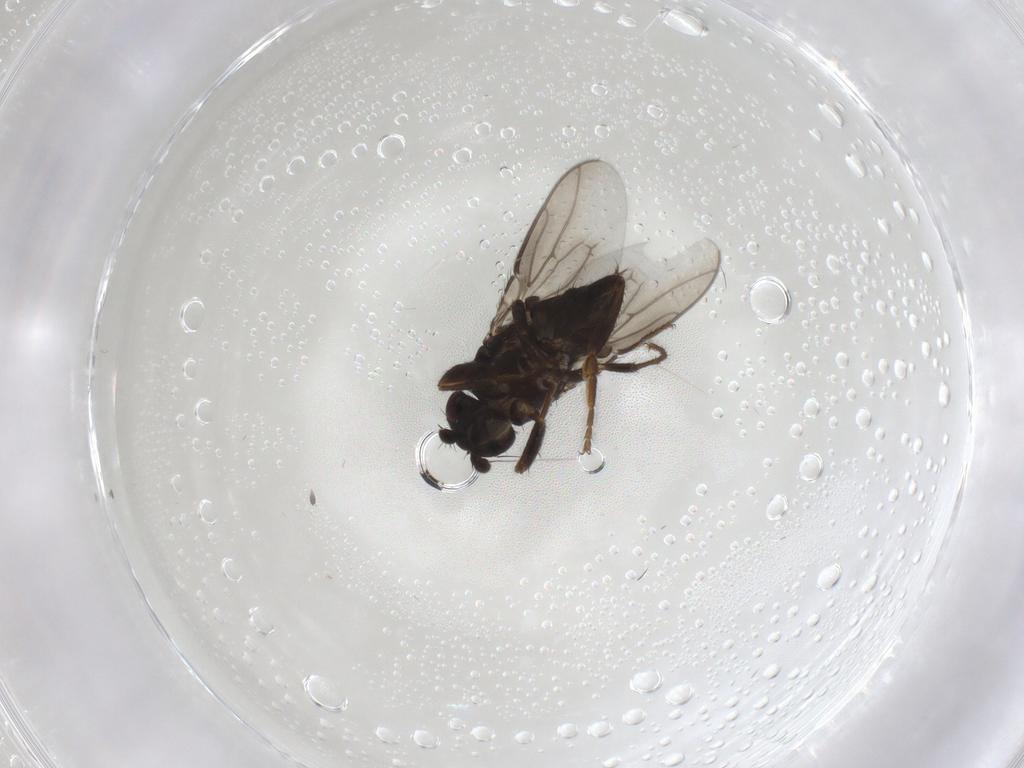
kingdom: Animalia
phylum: Arthropoda
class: Insecta
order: Diptera
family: Sphaeroceridae
